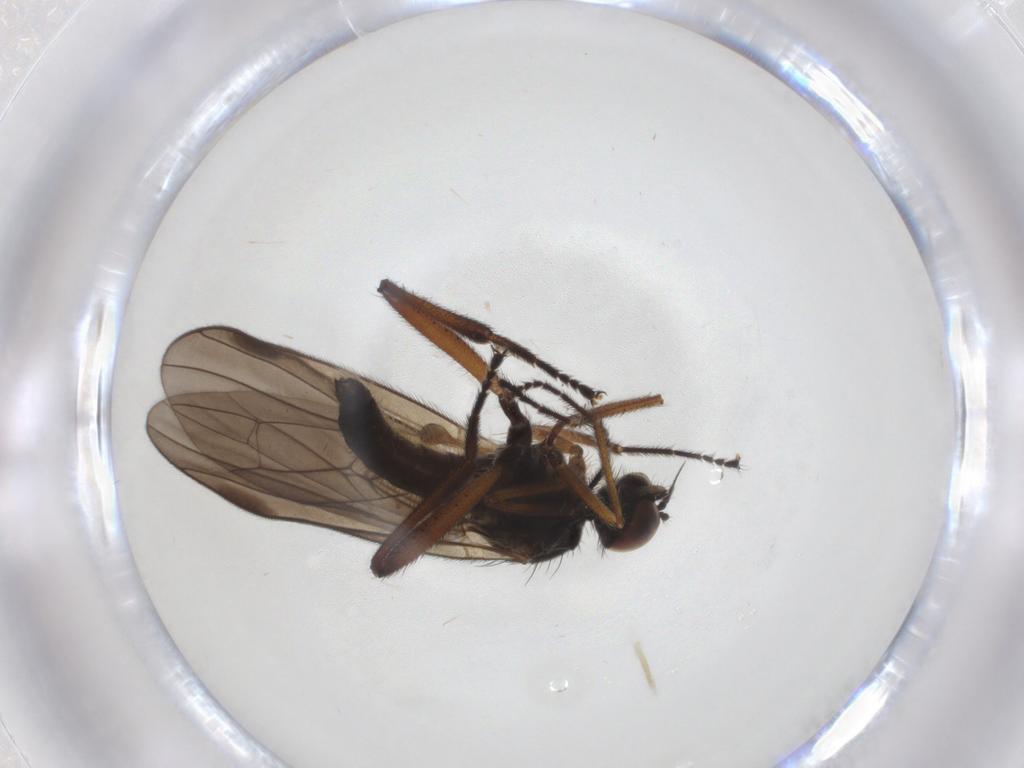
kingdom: Animalia
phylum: Arthropoda
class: Insecta
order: Diptera
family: Hybotidae
